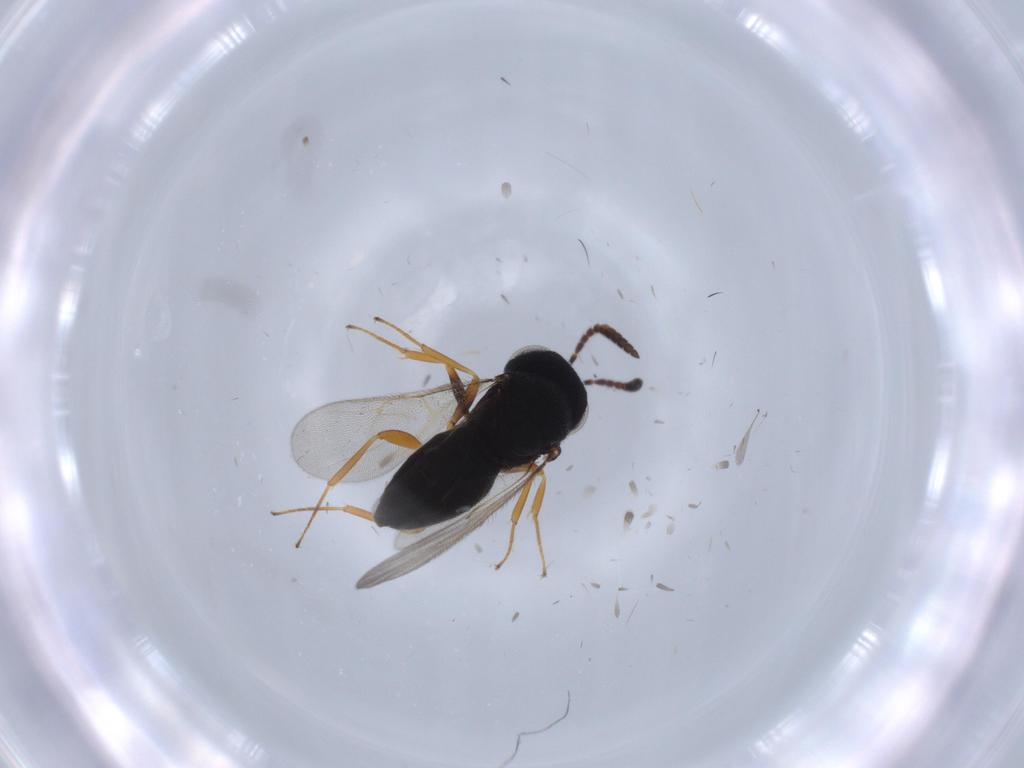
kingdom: Animalia
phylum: Arthropoda
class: Insecta
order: Hymenoptera
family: Scelionidae
